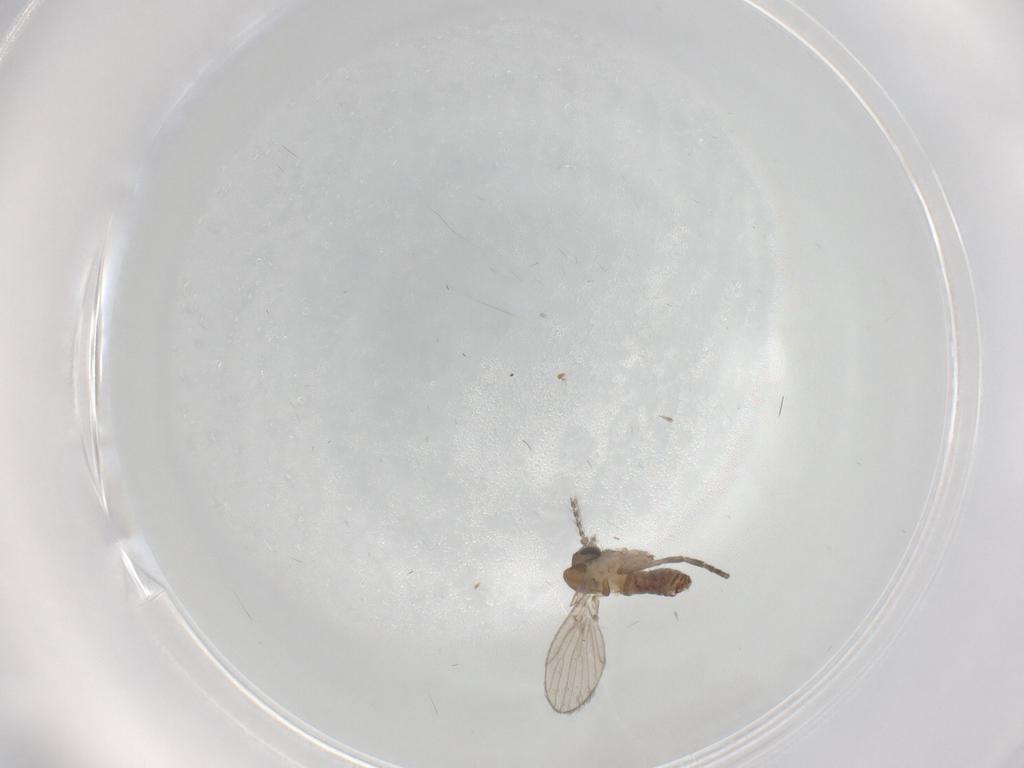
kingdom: Animalia
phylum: Arthropoda
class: Insecta
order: Diptera
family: Psychodidae
